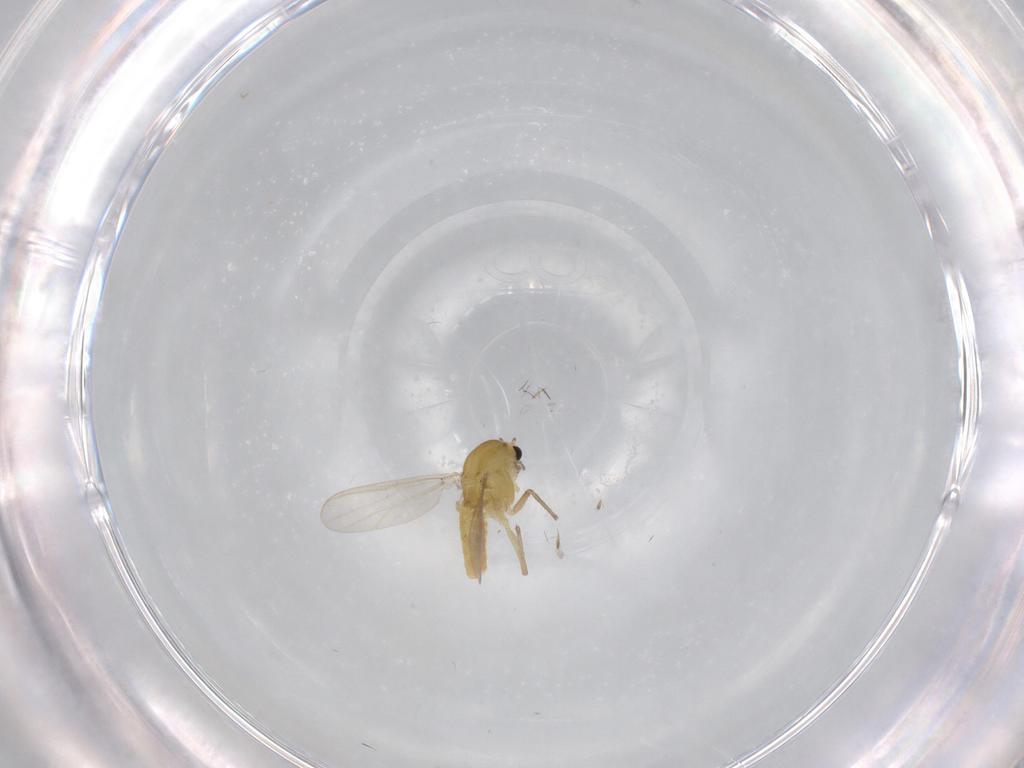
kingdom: Animalia
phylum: Arthropoda
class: Insecta
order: Diptera
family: Chironomidae
